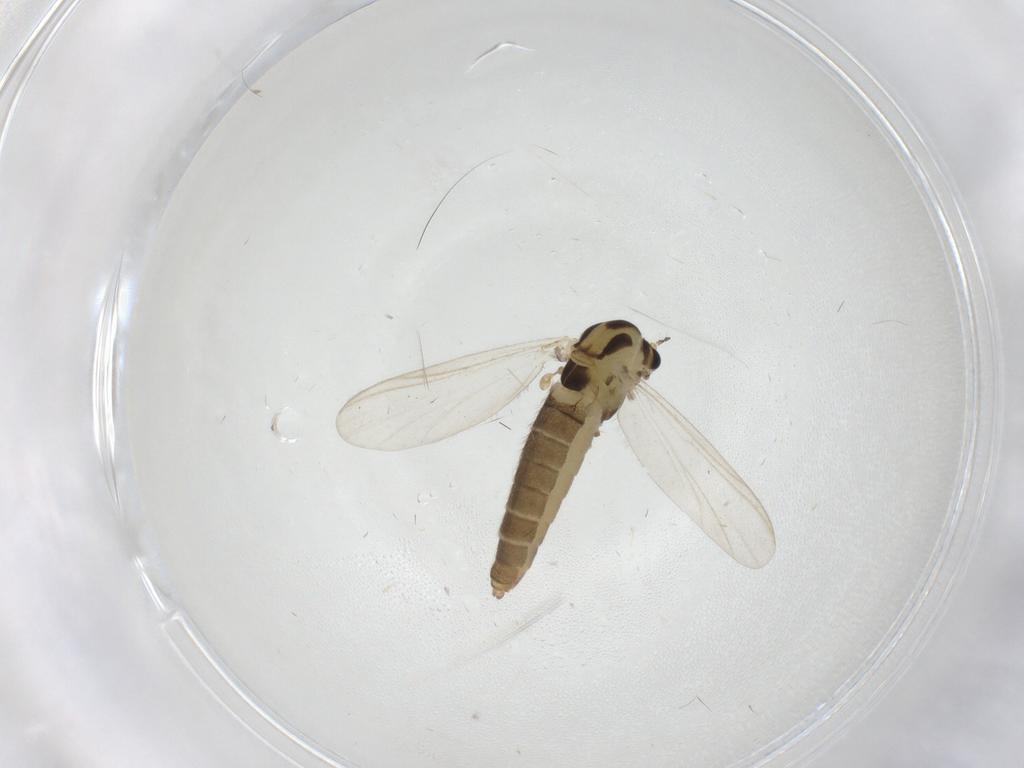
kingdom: Animalia
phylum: Arthropoda
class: Insecta
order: Diptera
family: Chironomidae
